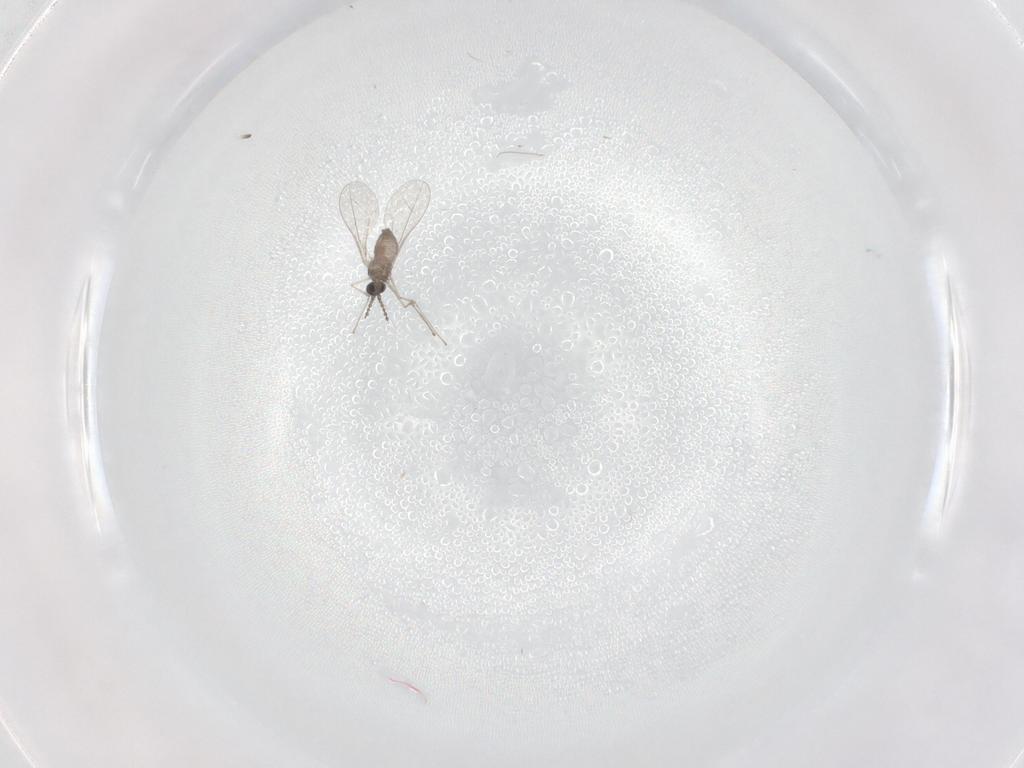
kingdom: Animalia
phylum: Arthropoda
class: Insecta
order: Diptera
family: Cecidomyiidae
